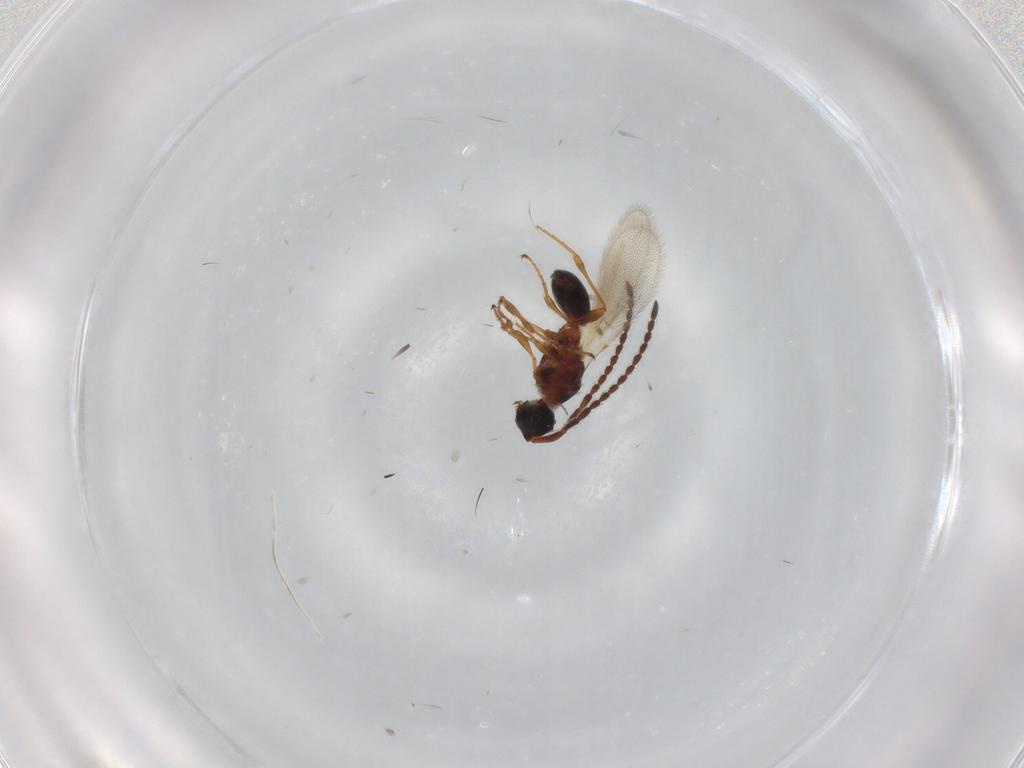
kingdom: Animalia
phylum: Arthropoda
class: Insecta
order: Hymenoptera
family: Diapriidae
